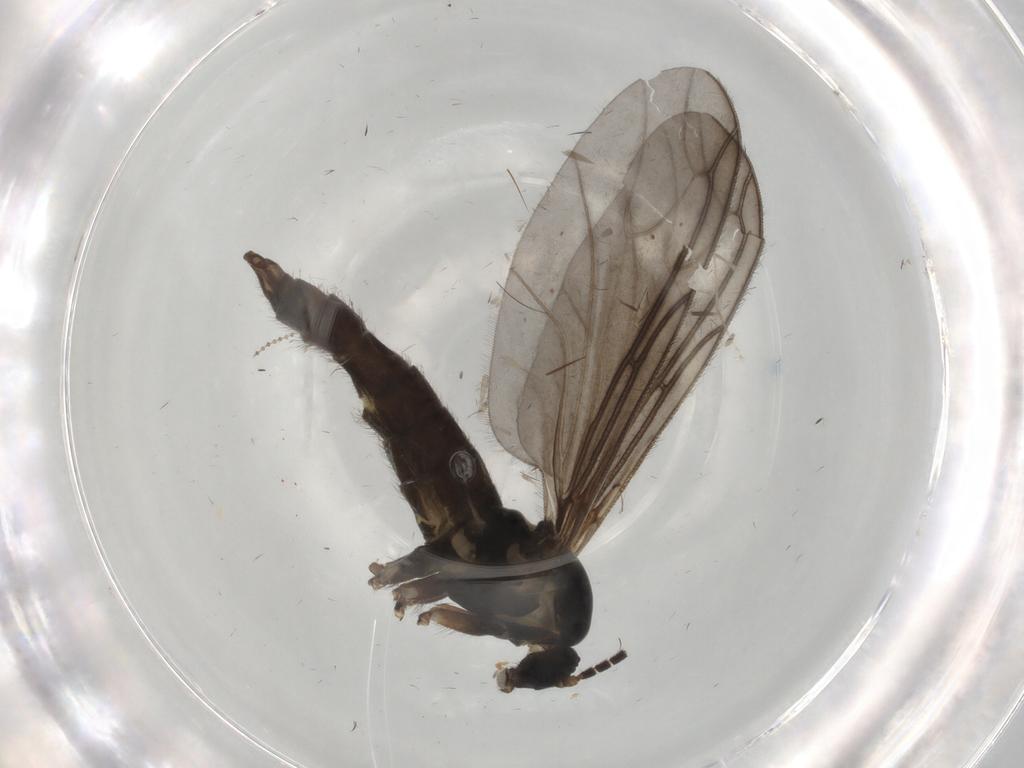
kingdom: Animalia
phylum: Arthropoda
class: Insecta
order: Diptera
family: Sciaridae
